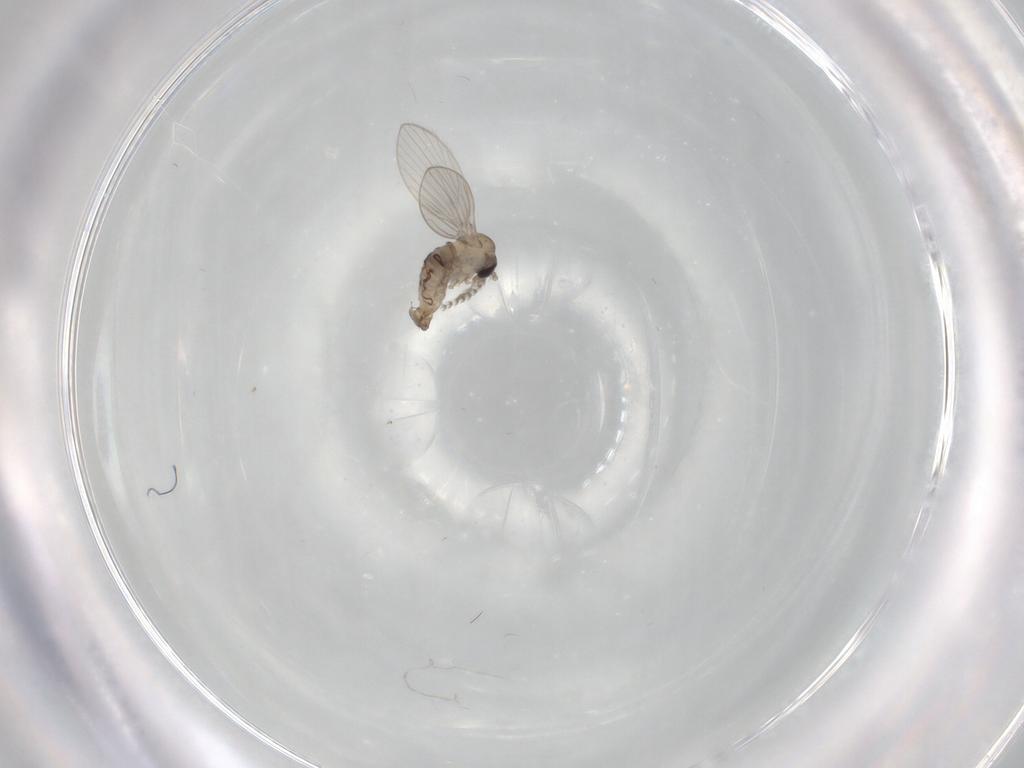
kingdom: Animalia
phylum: Arthropoda
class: Insecta
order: Diptera
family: Psychodidae
